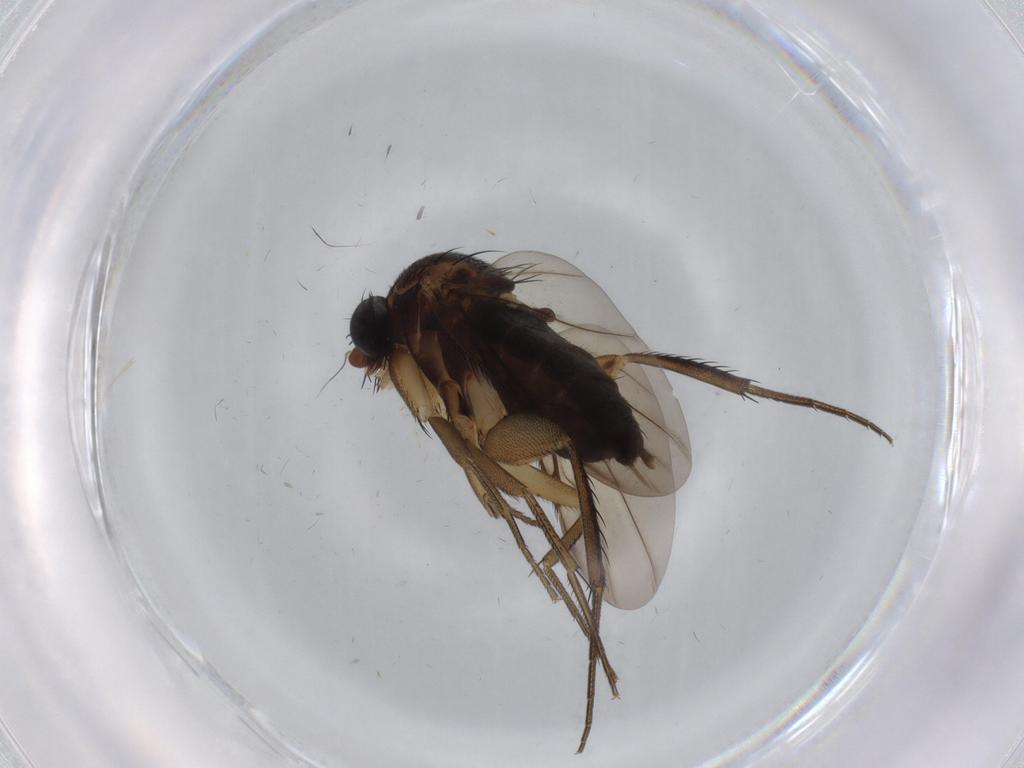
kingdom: Animalia
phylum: Arthropoda
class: Insecta
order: Diptera
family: Phoridae
